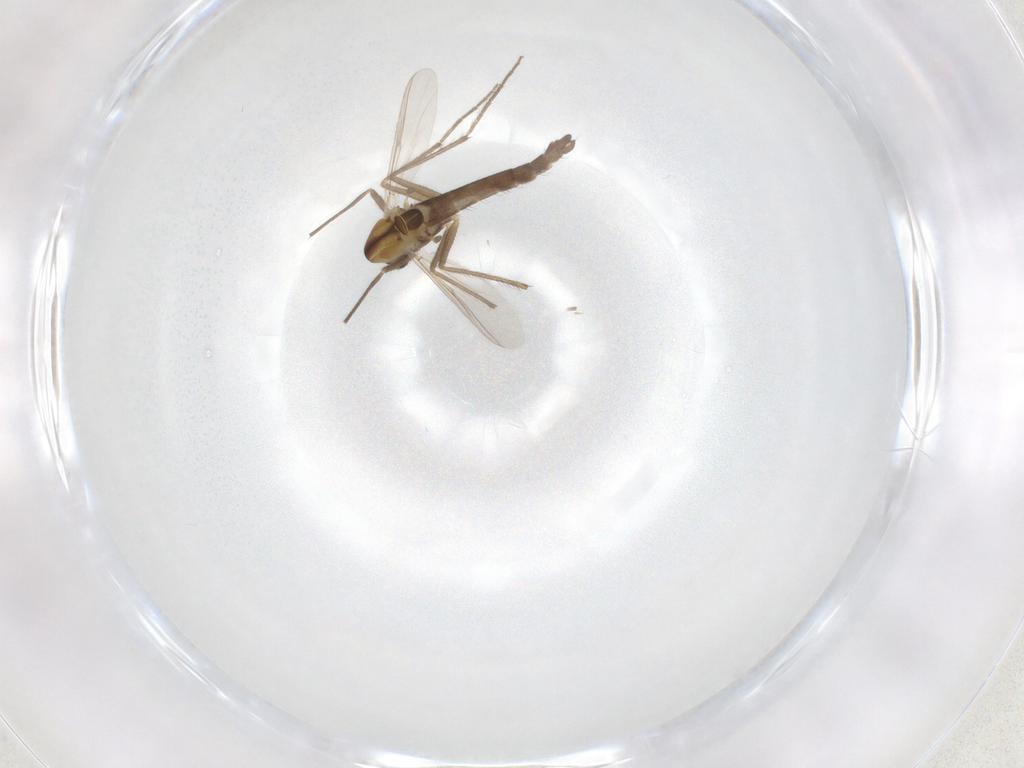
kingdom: Animalia
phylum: Arthropoda
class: Insecta
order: Diptera
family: Chironomidae
